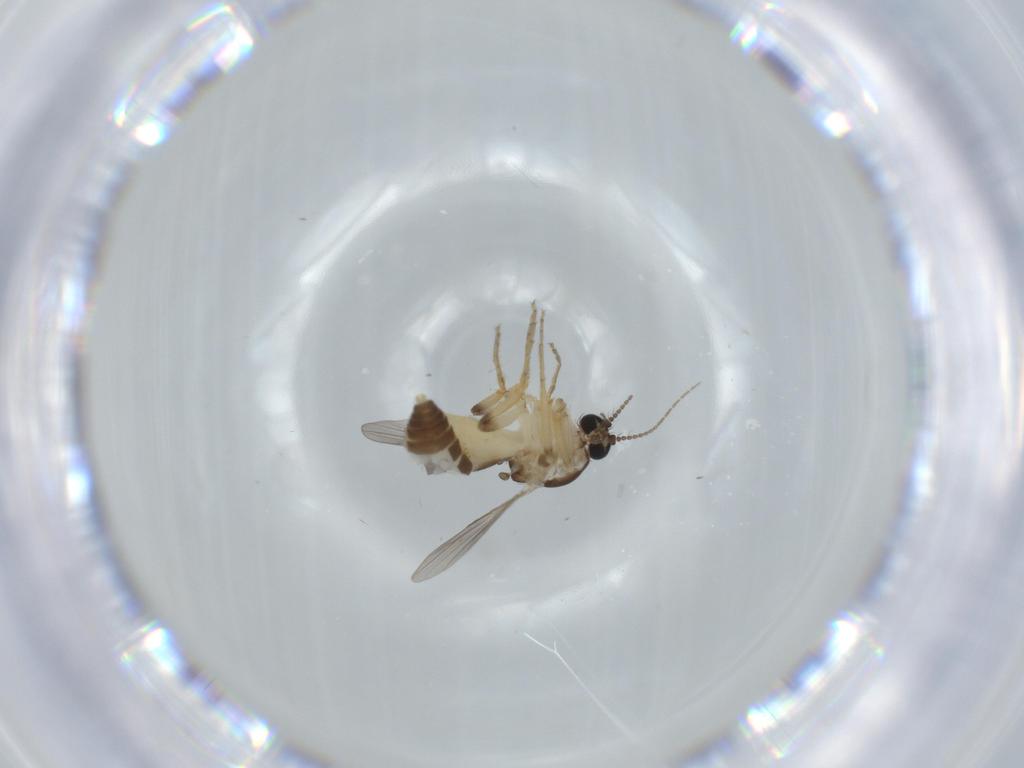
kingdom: Animalia
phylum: Arthropoda
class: Insecta
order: Diptera
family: Ceratopogonidae
